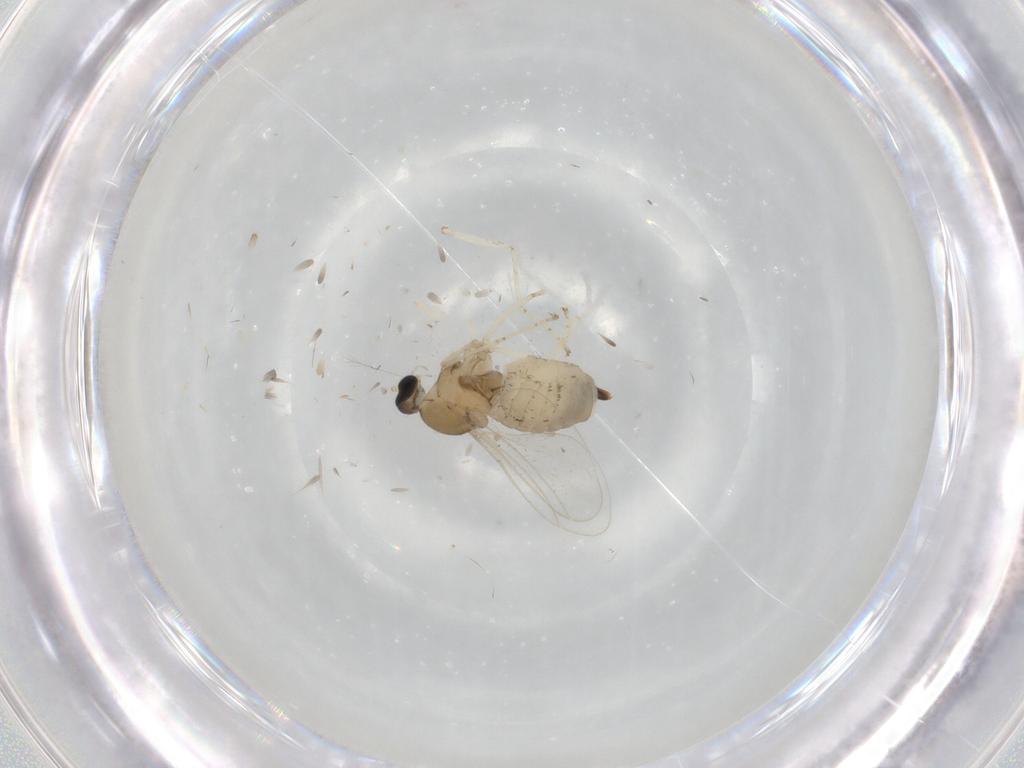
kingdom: Animalia
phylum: Arthropoda
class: Insecta
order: Diptera
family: Cecidomyiidae
